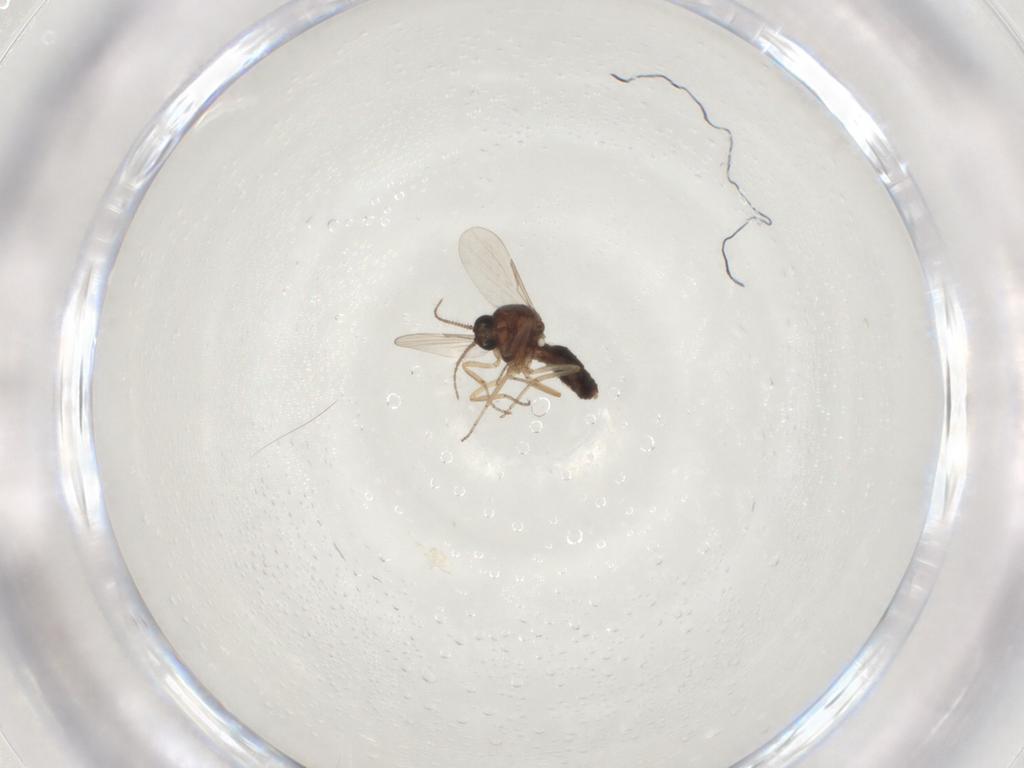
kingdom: Animalia
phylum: Arthropoda
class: Insecta
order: Diptera
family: Ceratopogonidae
